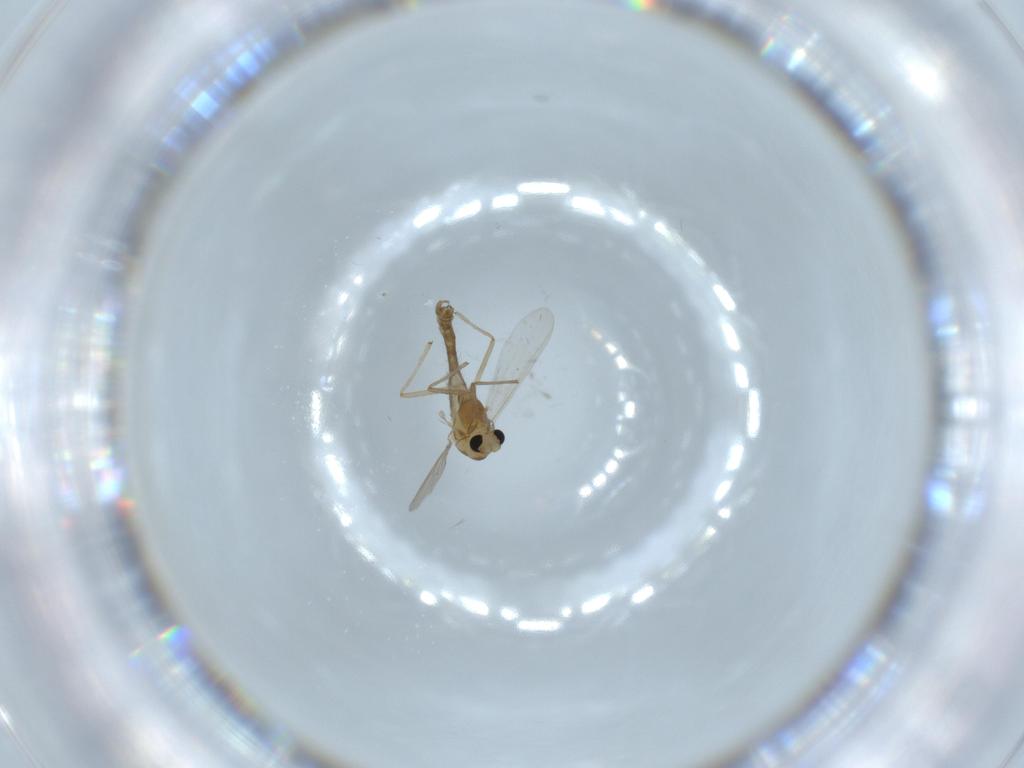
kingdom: Animalia
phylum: Arthropoda
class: Insecta
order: Diptera
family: Chironomidae
